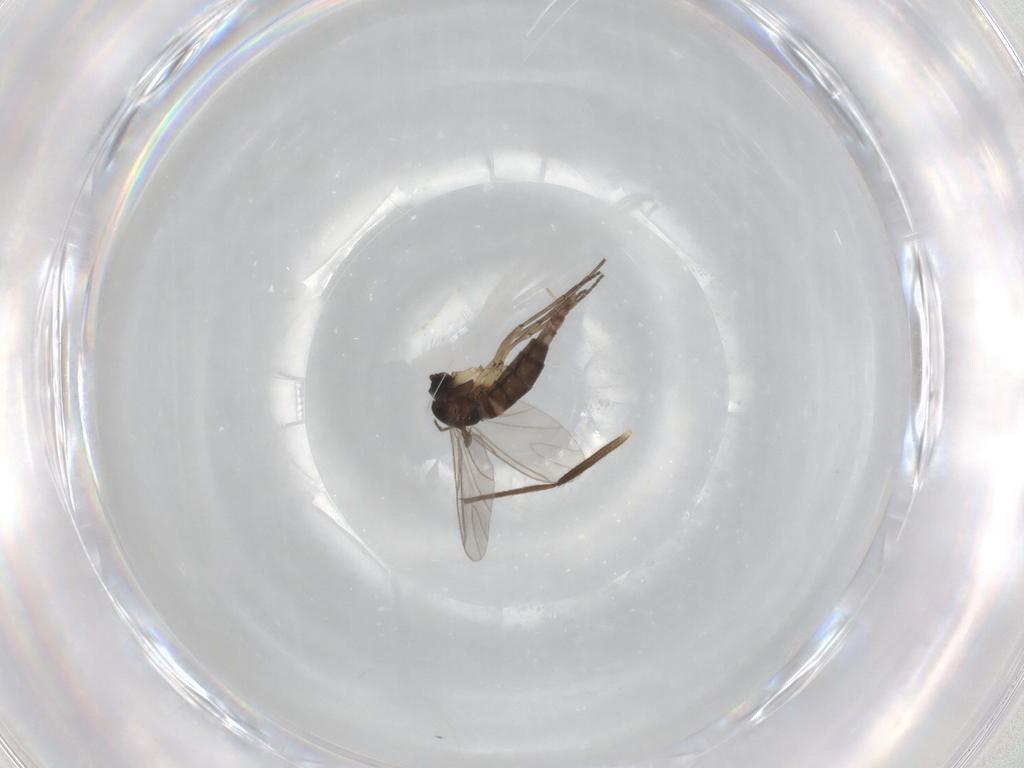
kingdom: Animalia
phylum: Arthropoda
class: Insecta
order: Diptera
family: Chironomidae
